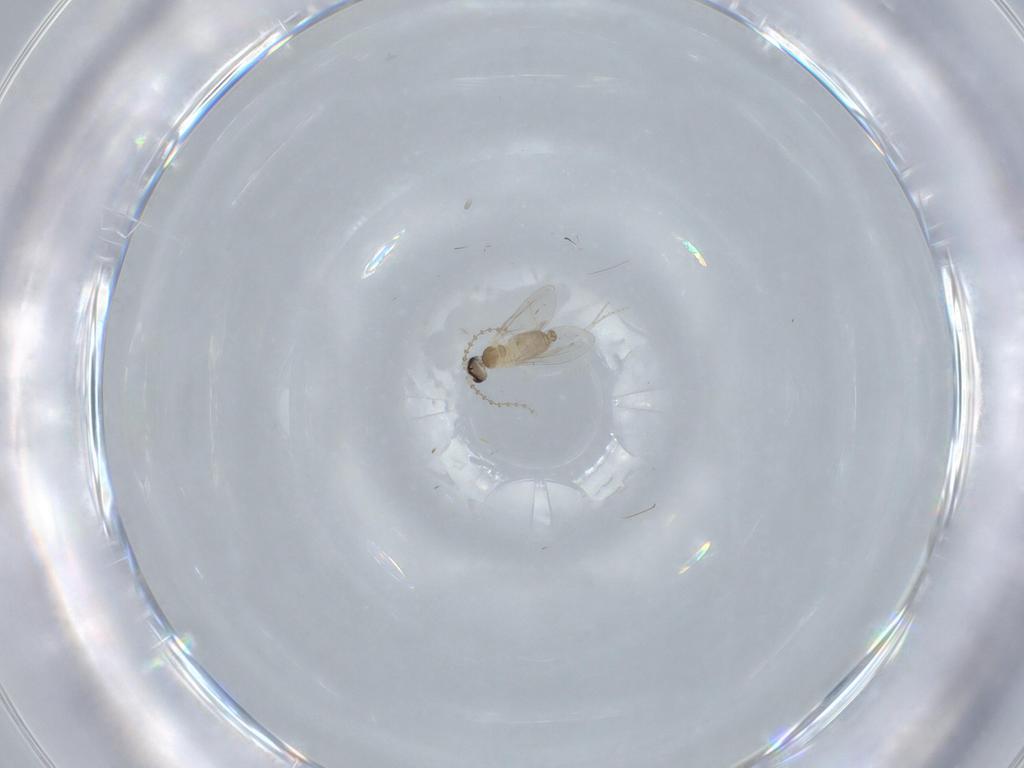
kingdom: Animalia
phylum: Arthropoda
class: Insecta
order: Diptera
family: Cecidomyiidae
